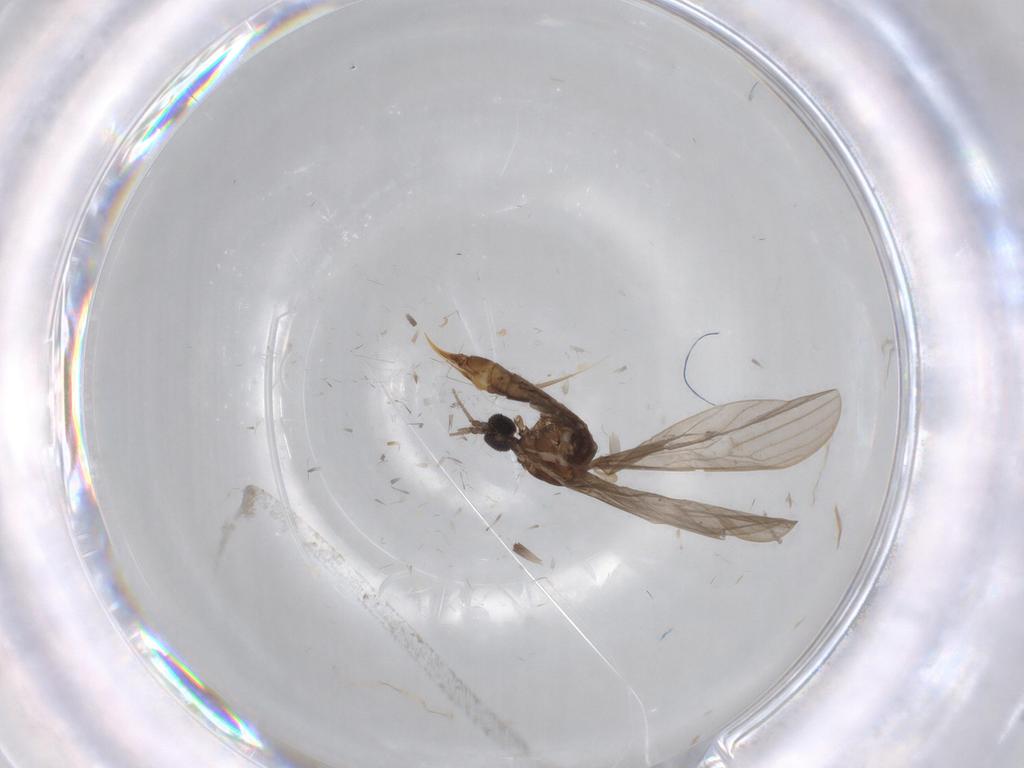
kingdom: Animalia
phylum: Arthropoda
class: Insecta
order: Diptera
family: Limoniidae
